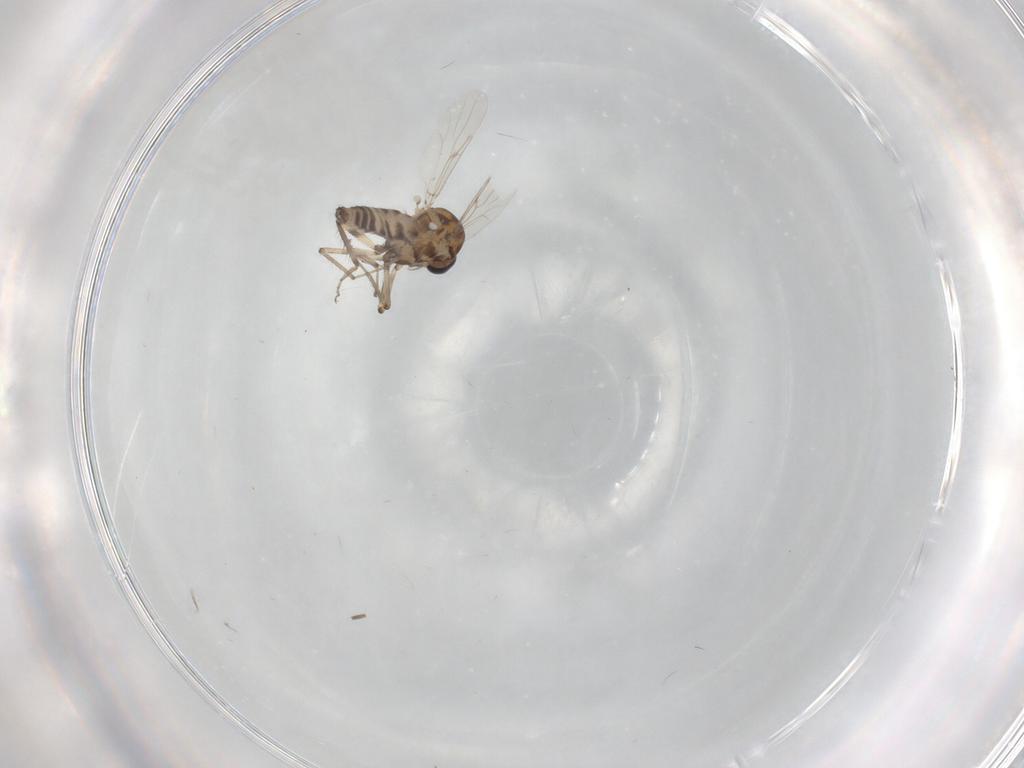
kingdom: Animalia
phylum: Arthropoda
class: Insecta
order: Diptera
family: Ceratopogonidae
